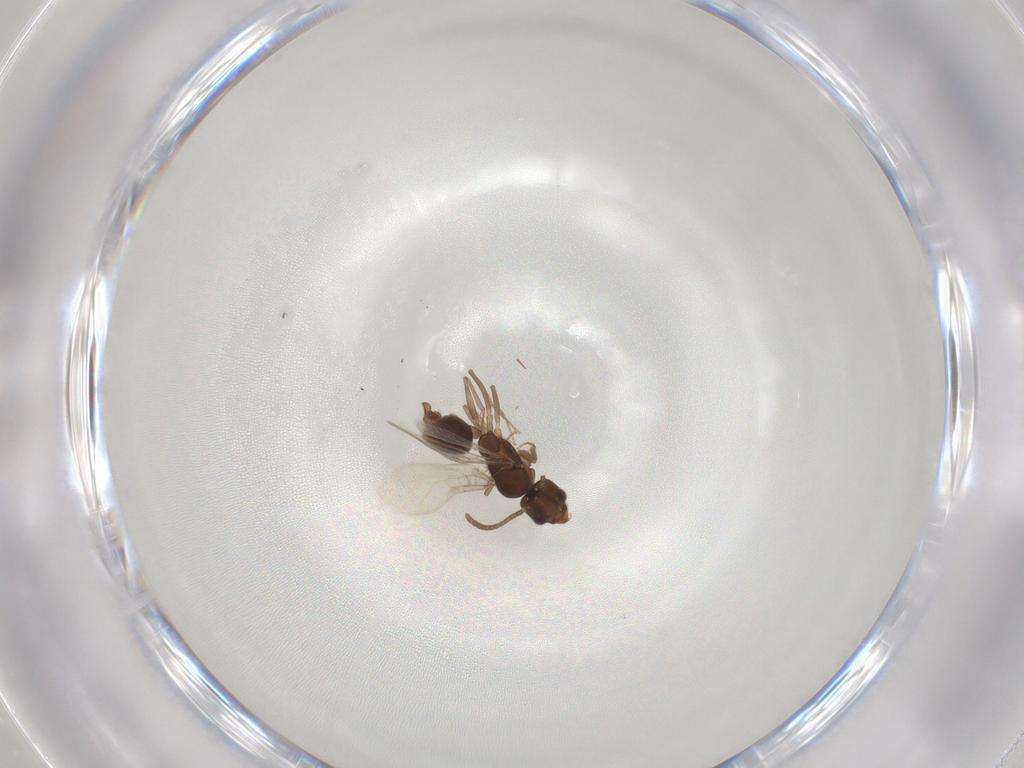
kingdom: Animalia
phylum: Arthropoda
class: Insecta
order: Hymenoptera
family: Formicidae
